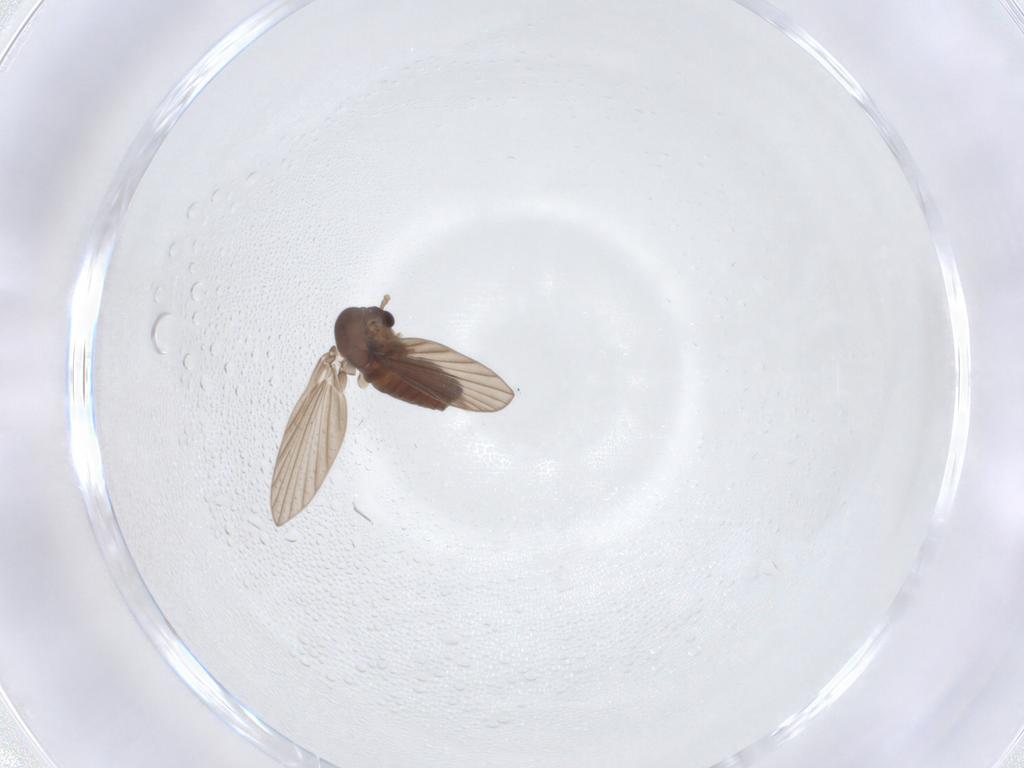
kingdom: Animalia
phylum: Arthropoda
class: Insecta
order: Diptera
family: Psychodidae
